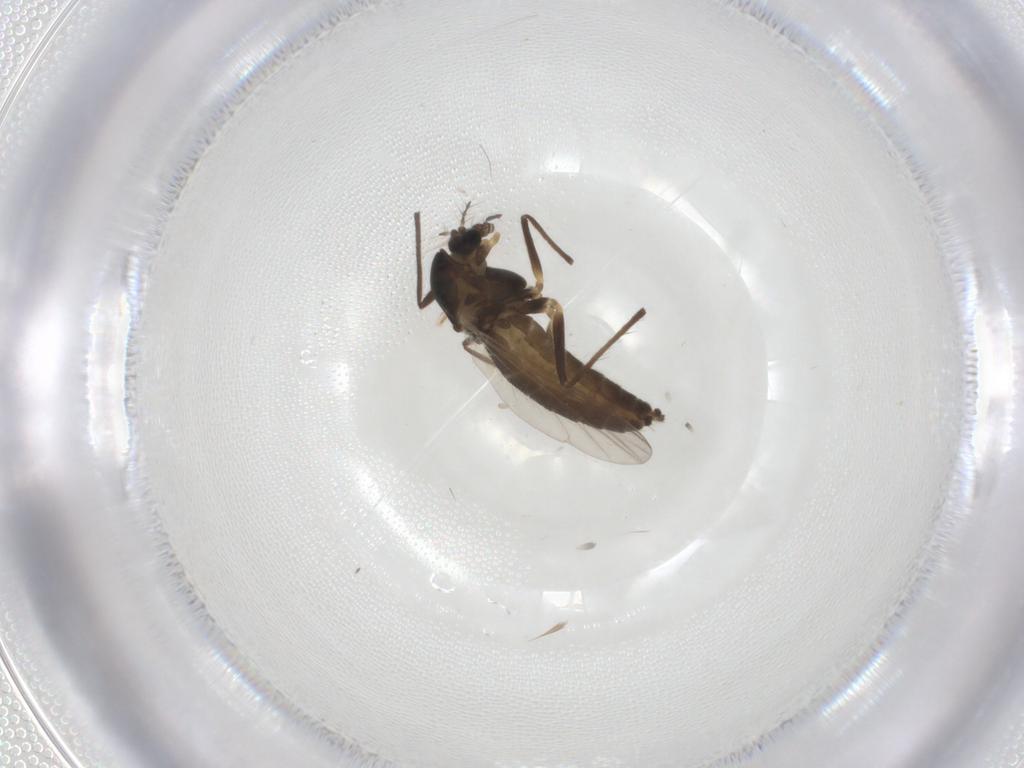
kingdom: Animalia
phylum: Arthropoda
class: Insecta
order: Diptera
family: Chironomidae
